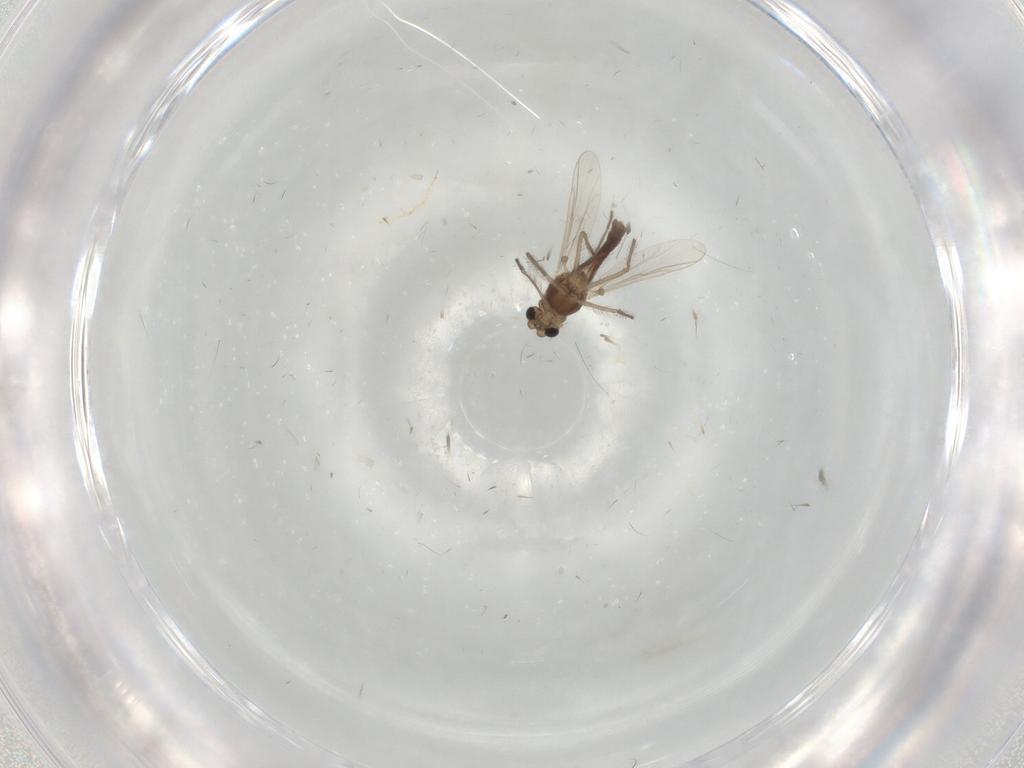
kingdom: Animalia
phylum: Arthropoda
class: Insecta
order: Diptera
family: Chironomidae
